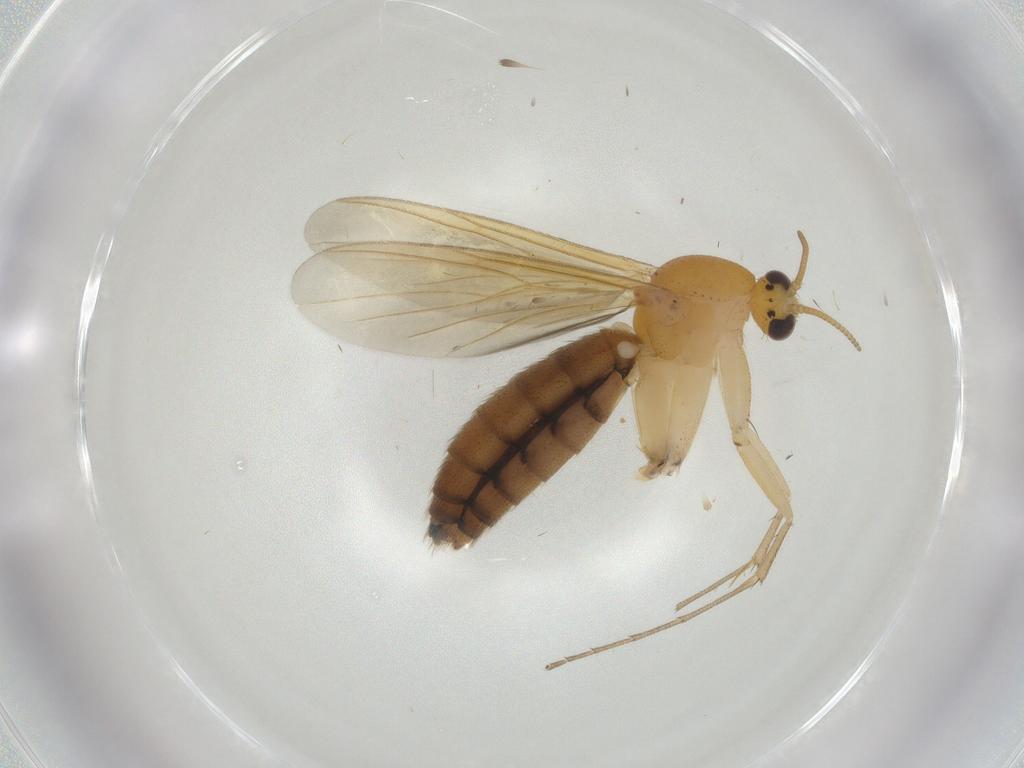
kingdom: Animalia
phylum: Arthropoda
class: Insecta
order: Diptera
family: Mycetophilidae
